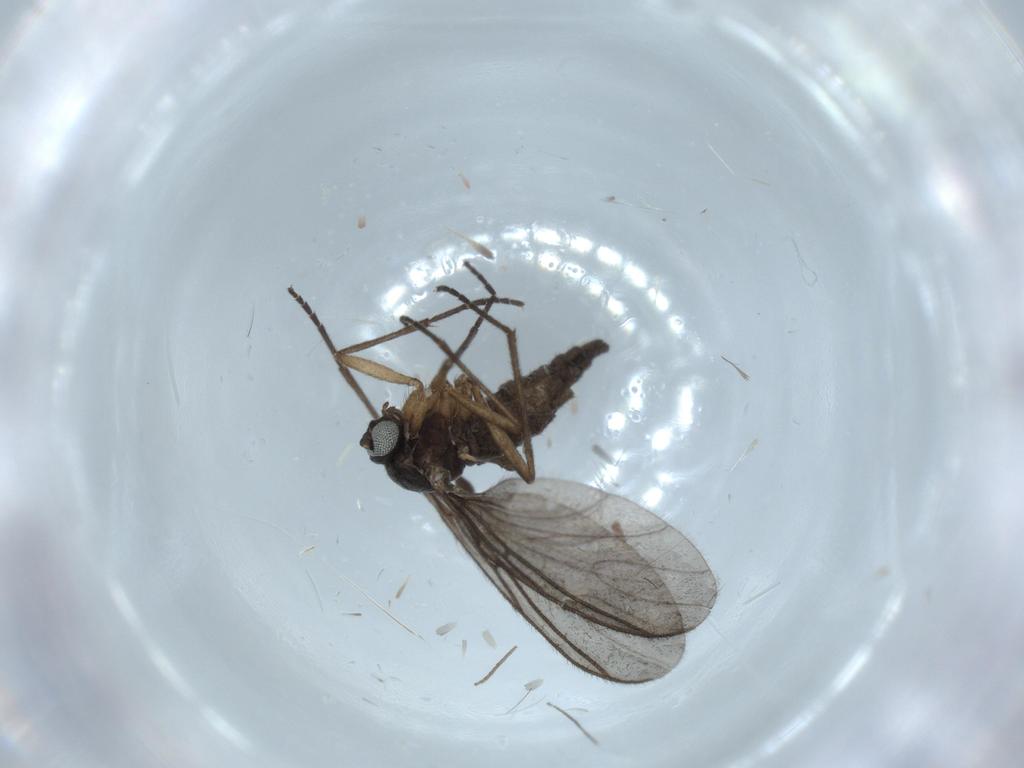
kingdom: Animalia
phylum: Arthropoda
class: Insecta
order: Diptera
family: Sciaridae
